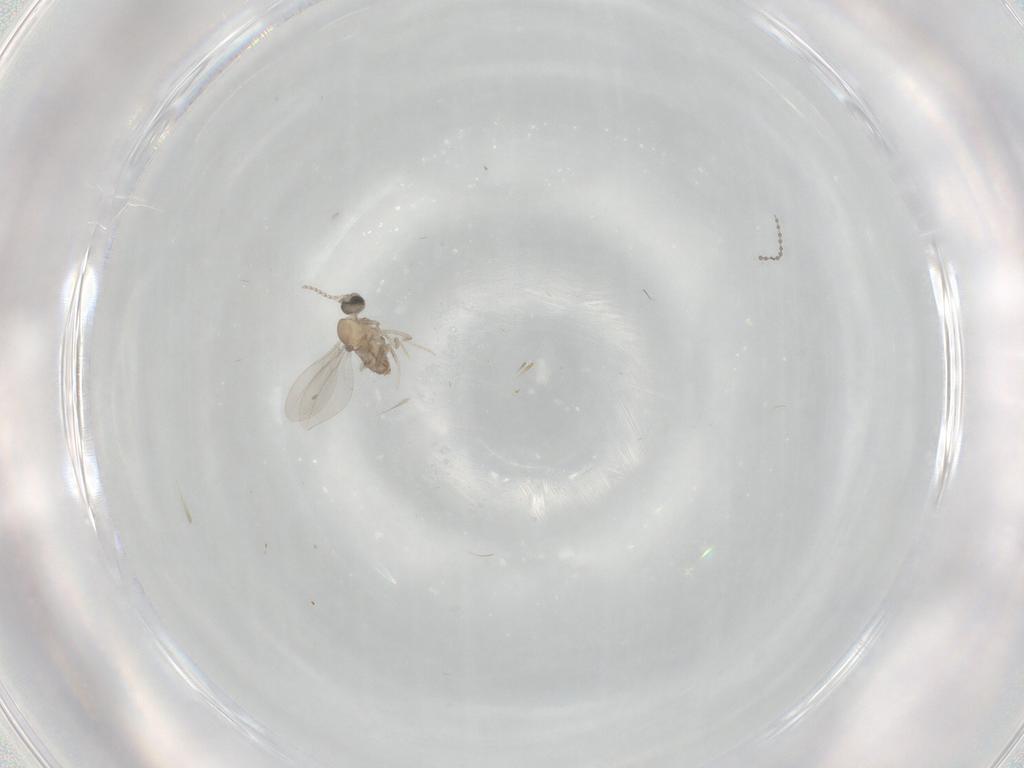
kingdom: Animalia
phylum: Arthropoda
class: Insecta
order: Diptera
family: Cecidomyiidae
